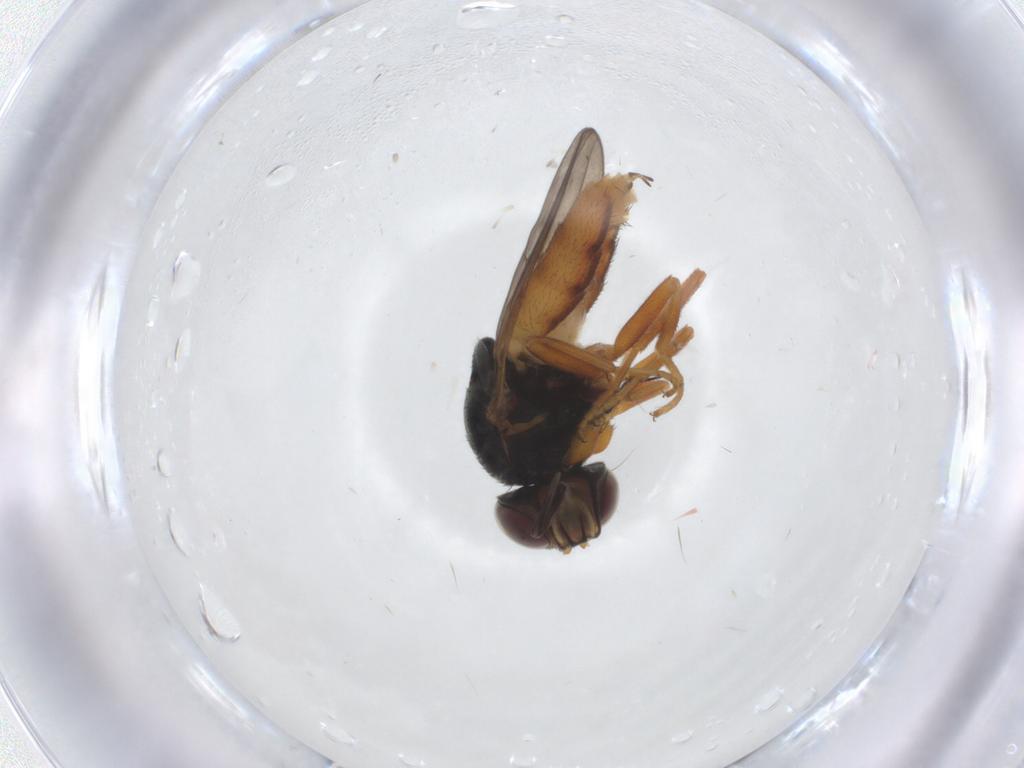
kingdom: Animalia
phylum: Arthropoda
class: Insecta
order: Diptera
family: Chloropidae
